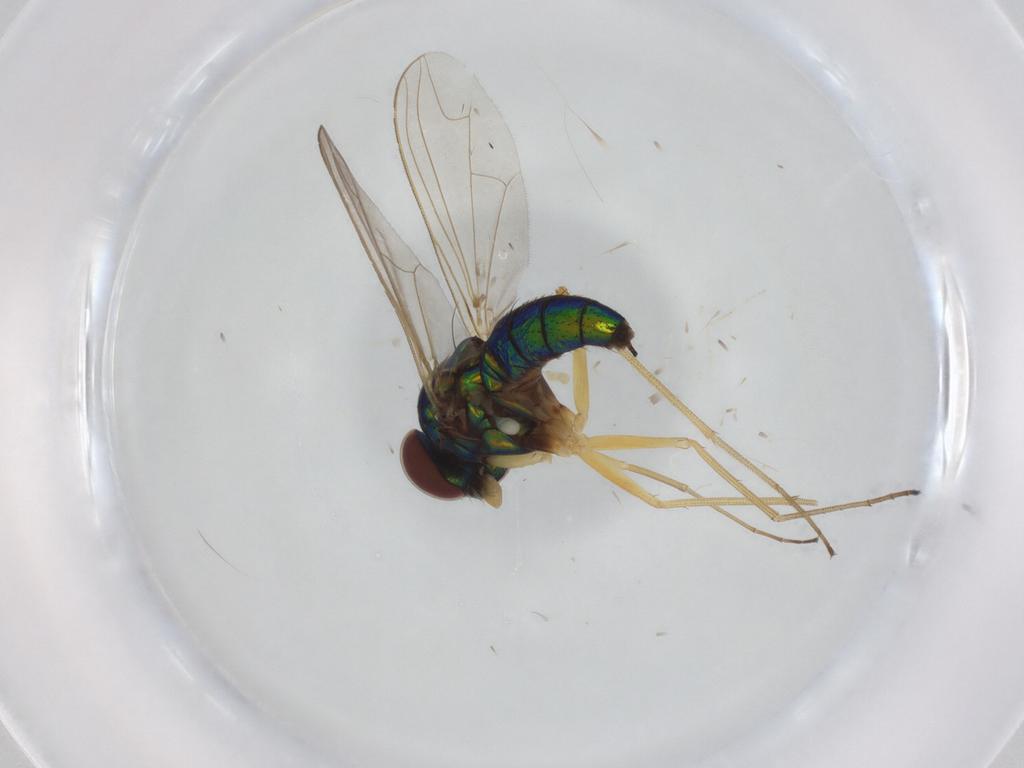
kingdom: Animalia
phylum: Arthropoda
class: Insecta
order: Diptera
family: Dolichopodidae
